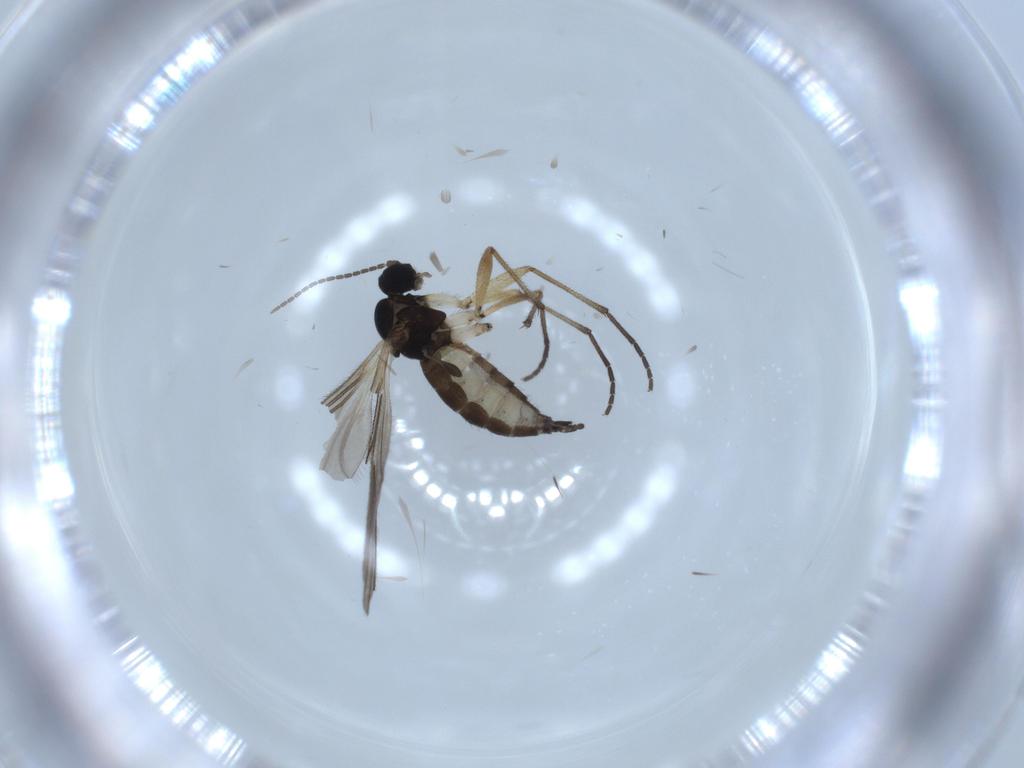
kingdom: Animalia
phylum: Arthropoda
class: Insecta
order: Diptera
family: Sciaridae
